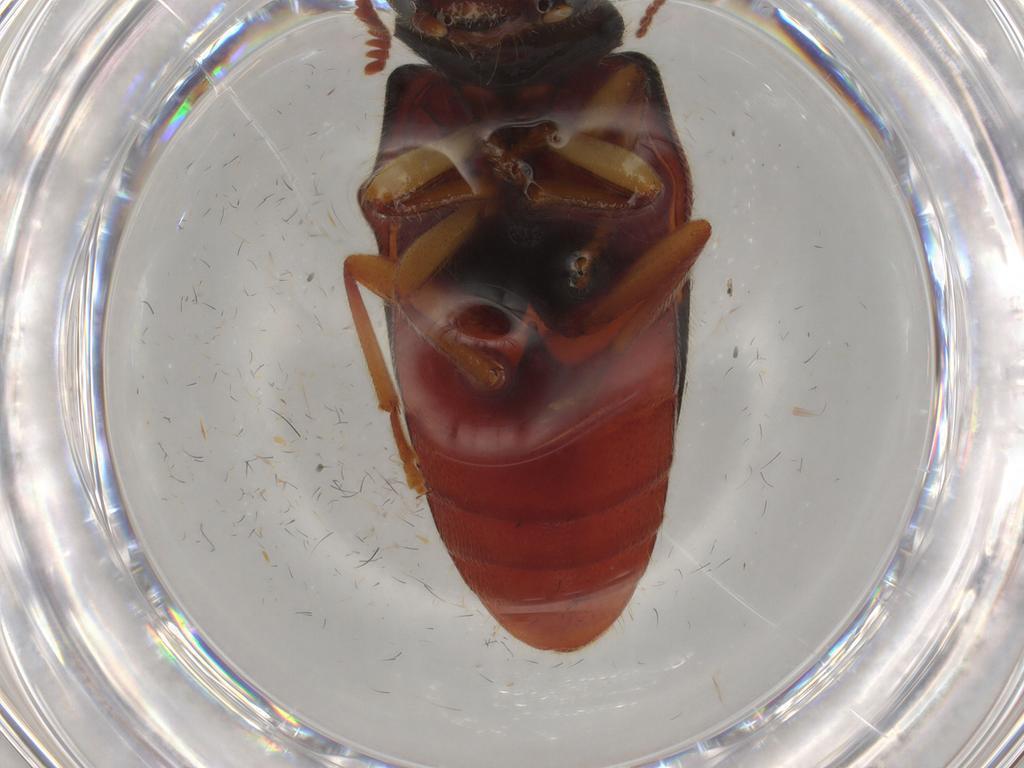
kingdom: Animalia
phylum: Arthropoda
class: Insecta
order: Coleoptera
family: Mycteridae
